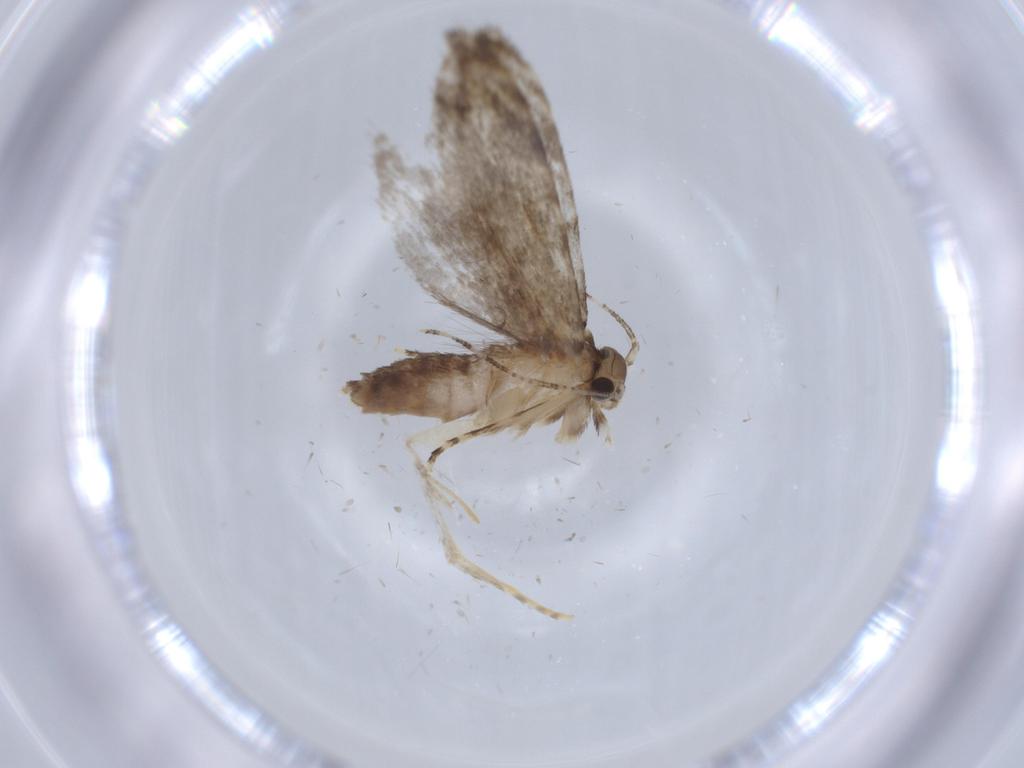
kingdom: Animalia
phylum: Arthropoda
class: Insecta
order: Lepidoptera
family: Tineidae
